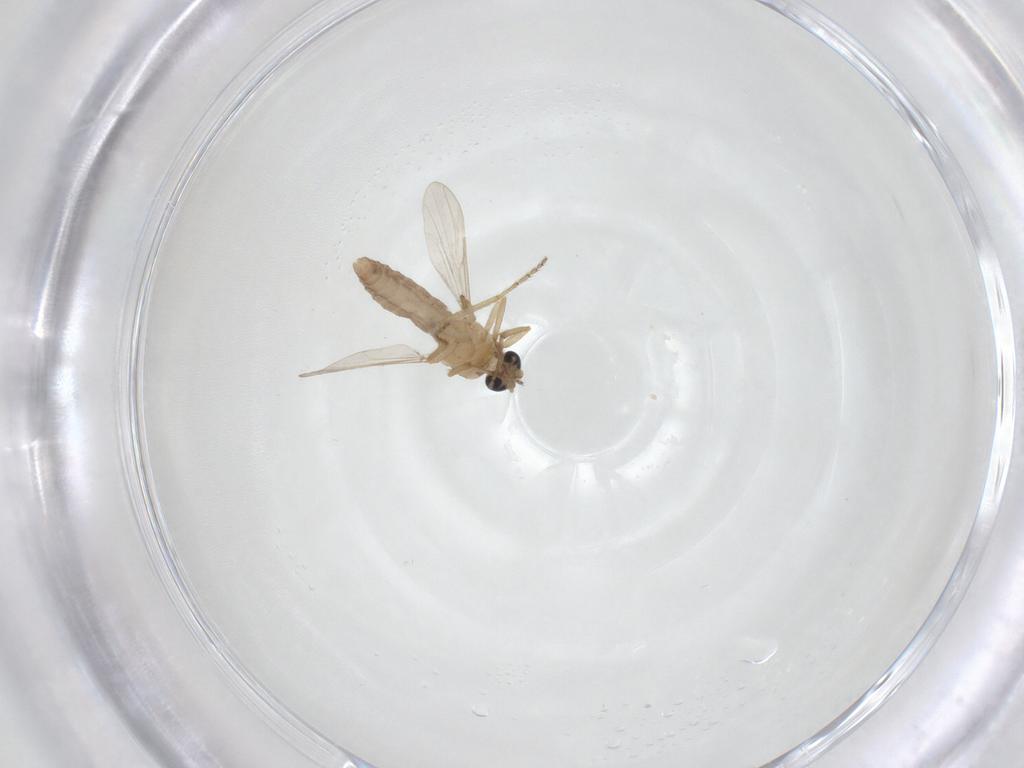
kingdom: Animalia
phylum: Arthropoda
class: Insecta
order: Diptera
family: Ceratopogonidae
